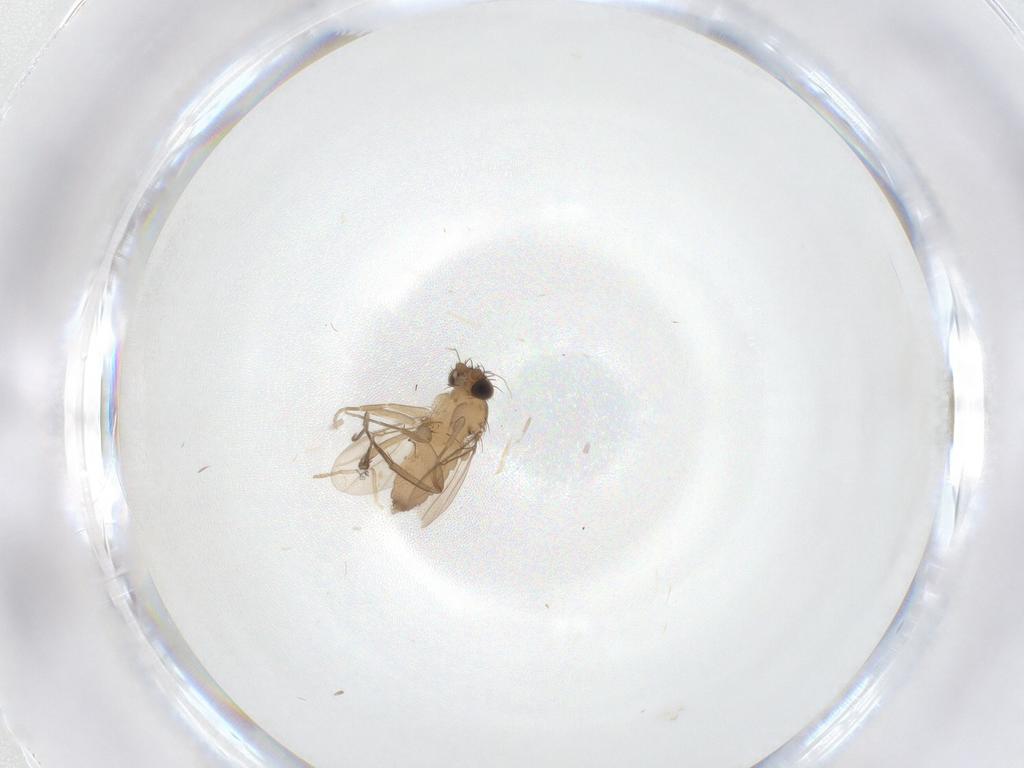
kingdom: Animalia
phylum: Arthropoda
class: Insecta
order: Diptera
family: Phoridae
